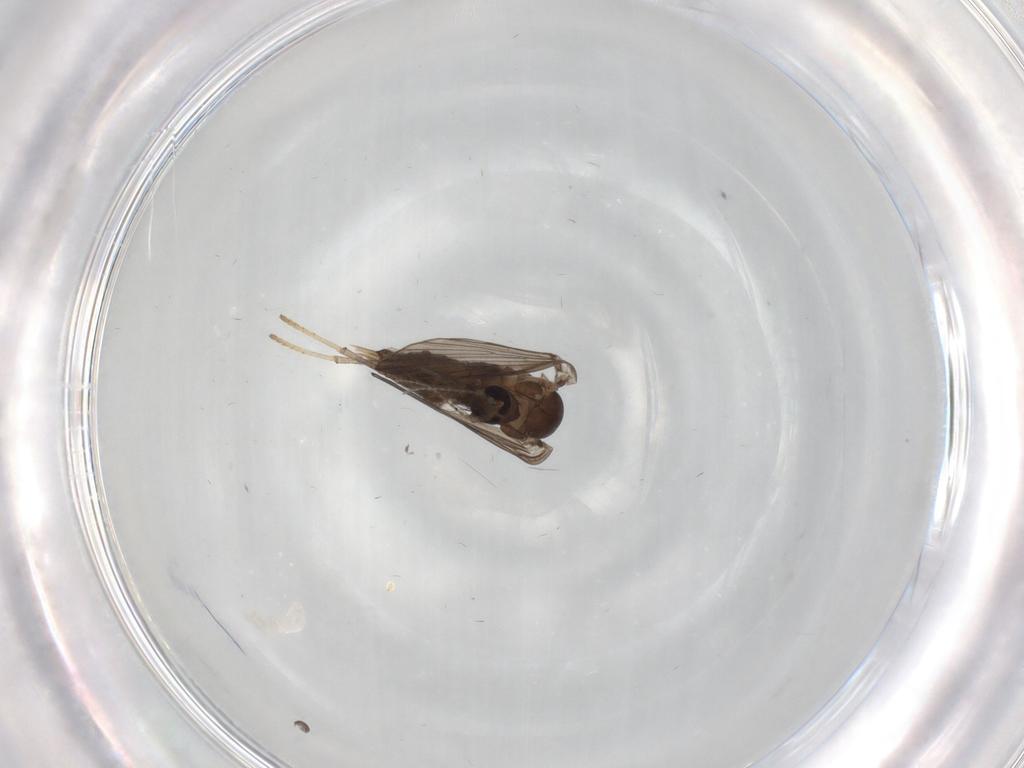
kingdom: Animalia
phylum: Arthropoda
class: Insecta
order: Diptera
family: Psychodidae
